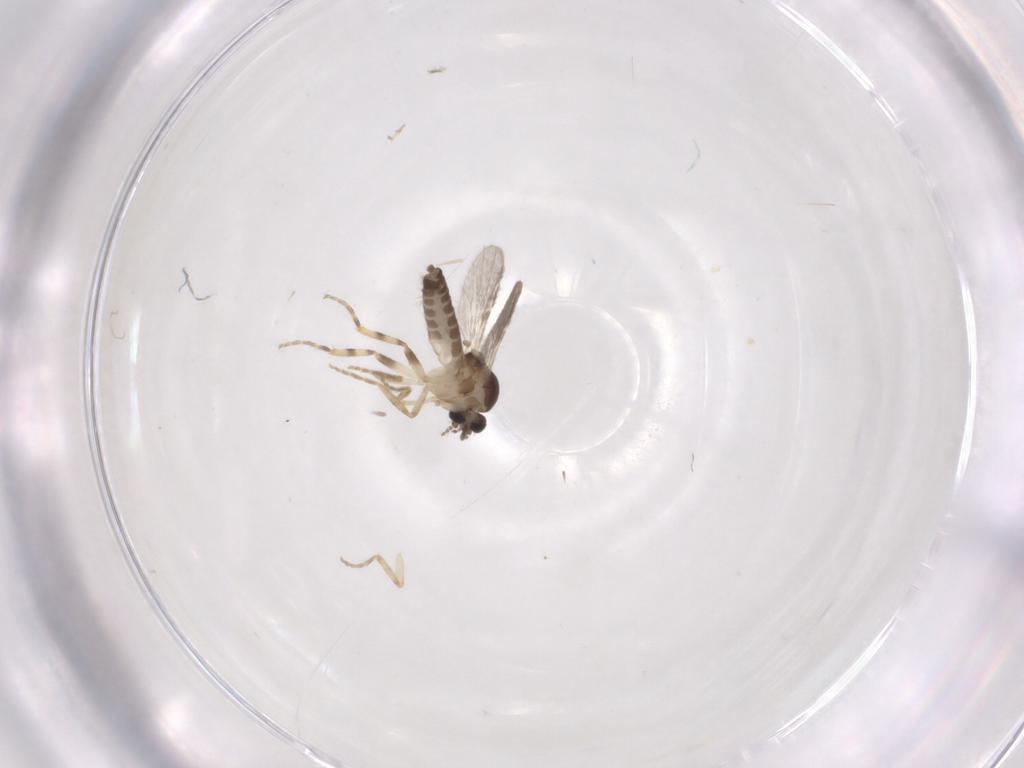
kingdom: Animalia
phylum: Arthropoda
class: Insecta
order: Diptera
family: Ceratopogonidae
